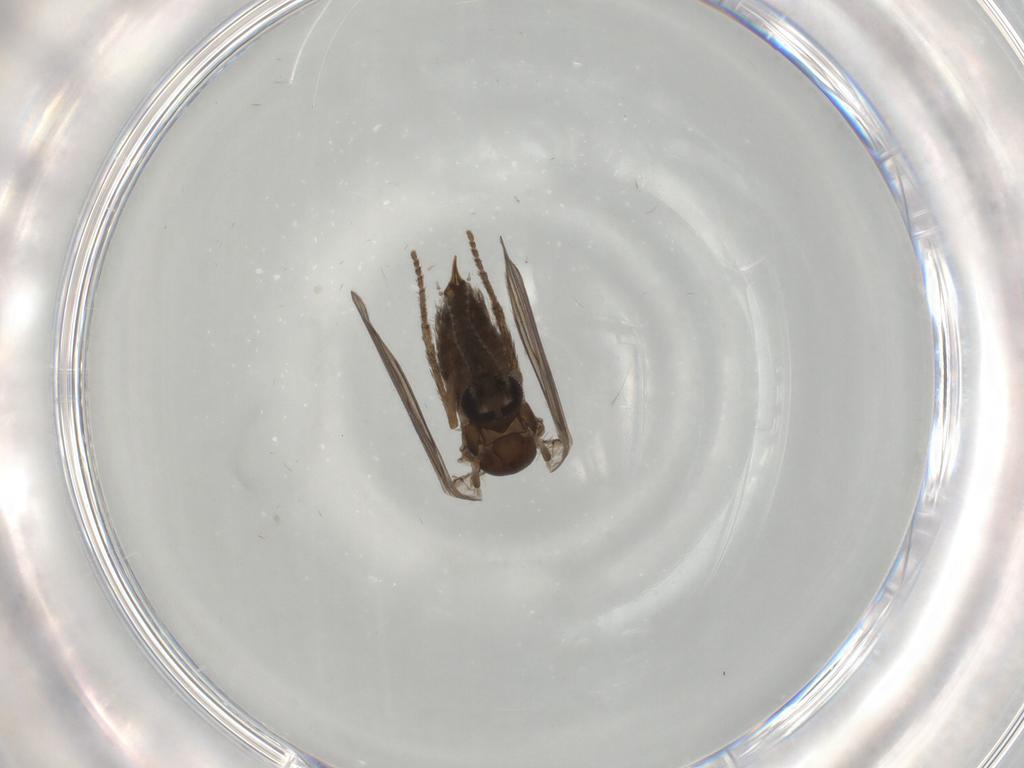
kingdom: Animalia
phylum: Arthropoda
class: Insecta
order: Diptera
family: Psychodidae
